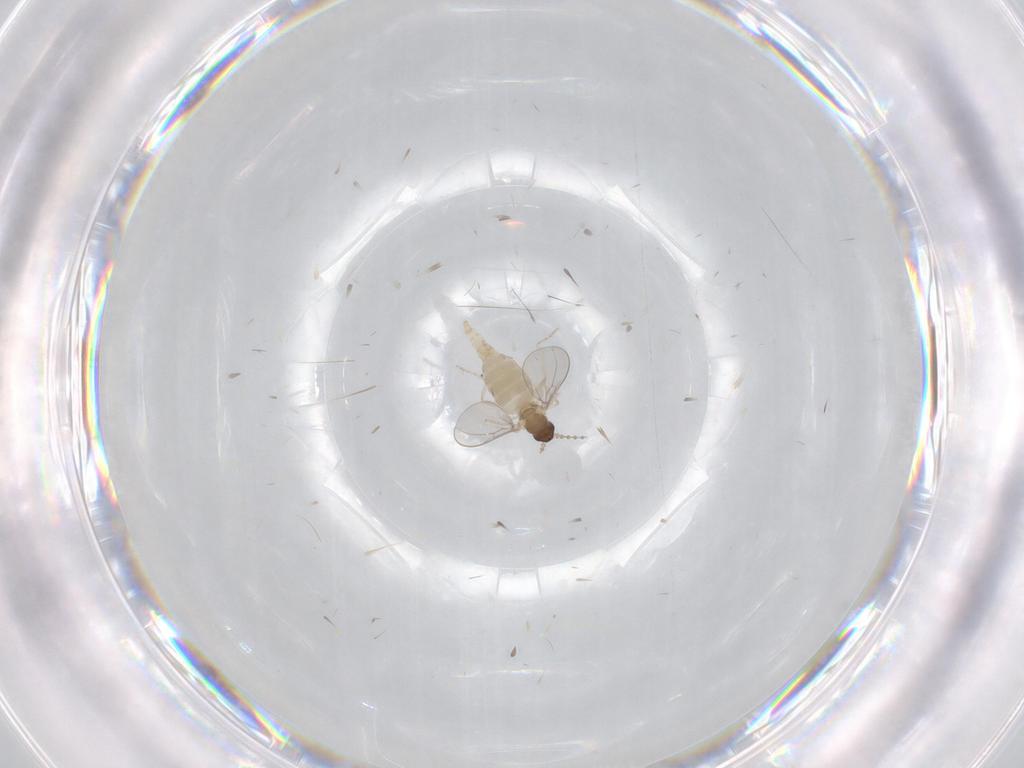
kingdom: Animalia
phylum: Arthropoda
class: Insecta
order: Diptera
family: Cecidomyiidae
